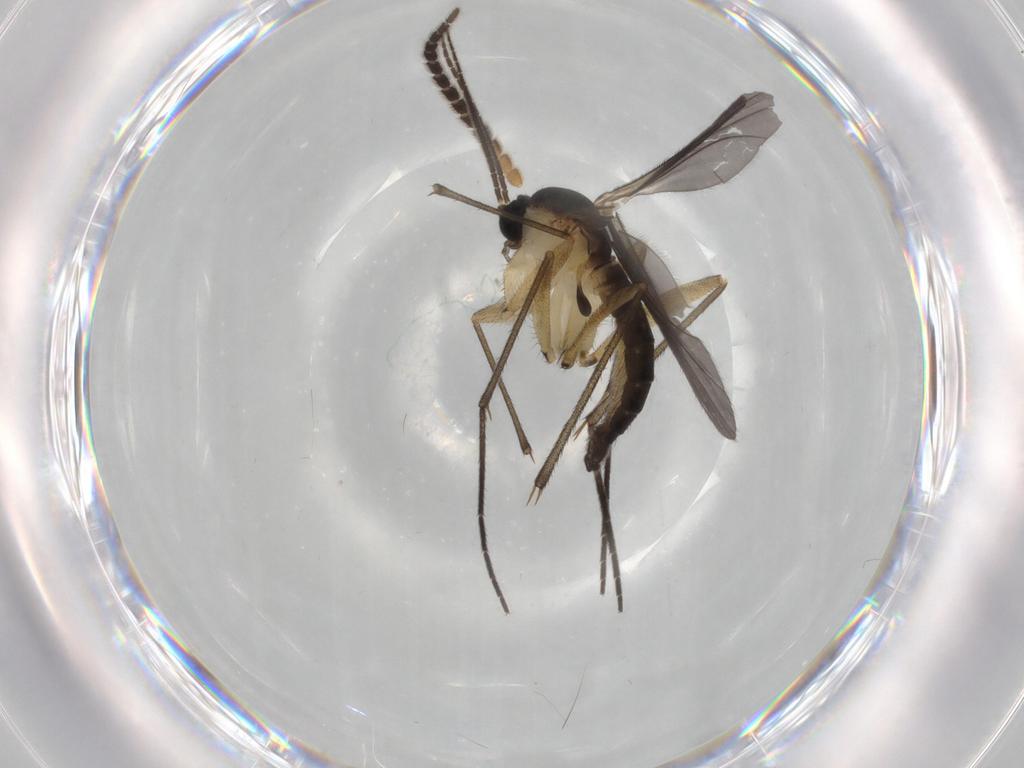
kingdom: Animalia
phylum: Arthropoda
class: Insecta
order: Diptera
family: Sciaridae
